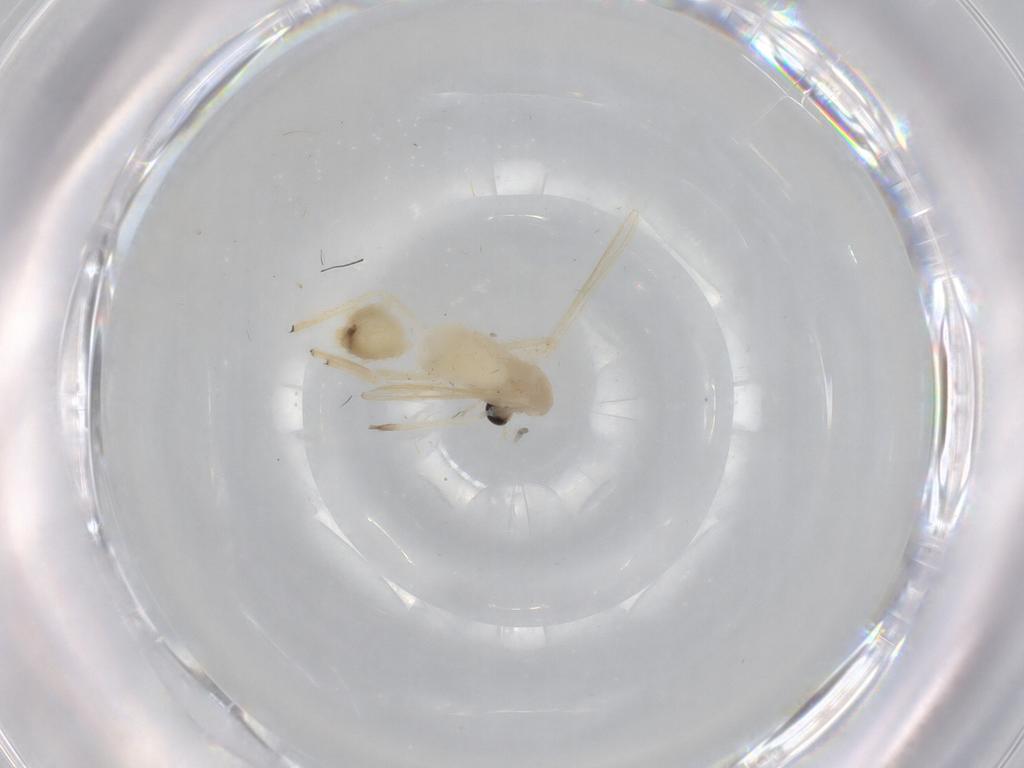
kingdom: Animalia
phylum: Arthropoda
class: Insecta
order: Diptera
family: Chironomidae
